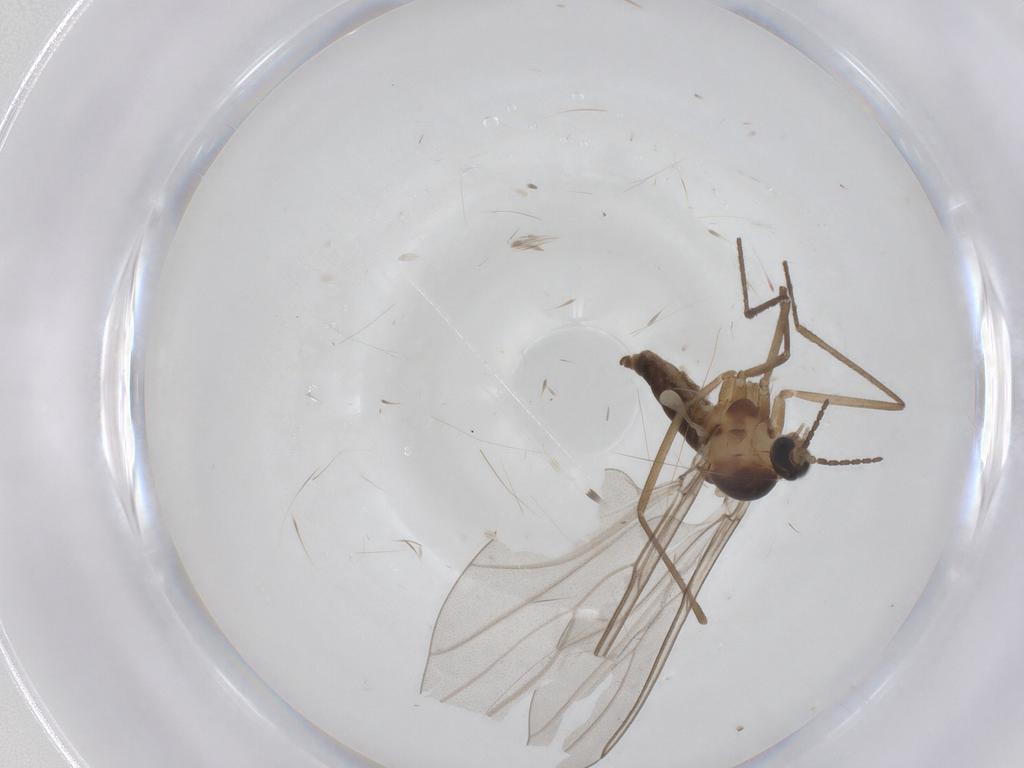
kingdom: Animalia
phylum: Arthropoda
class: Insecta
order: Diptera
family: Cecidomyiidae
